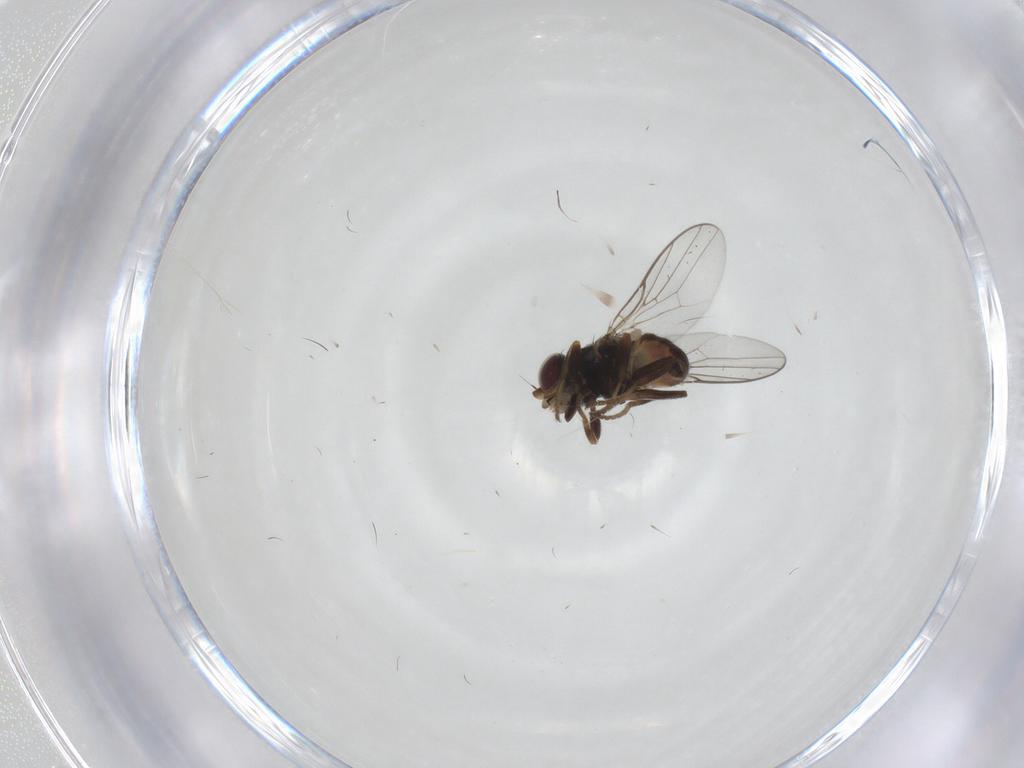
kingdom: Animalia
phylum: Arthropoda
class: Insecta
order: Diptera
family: Chloropidae
